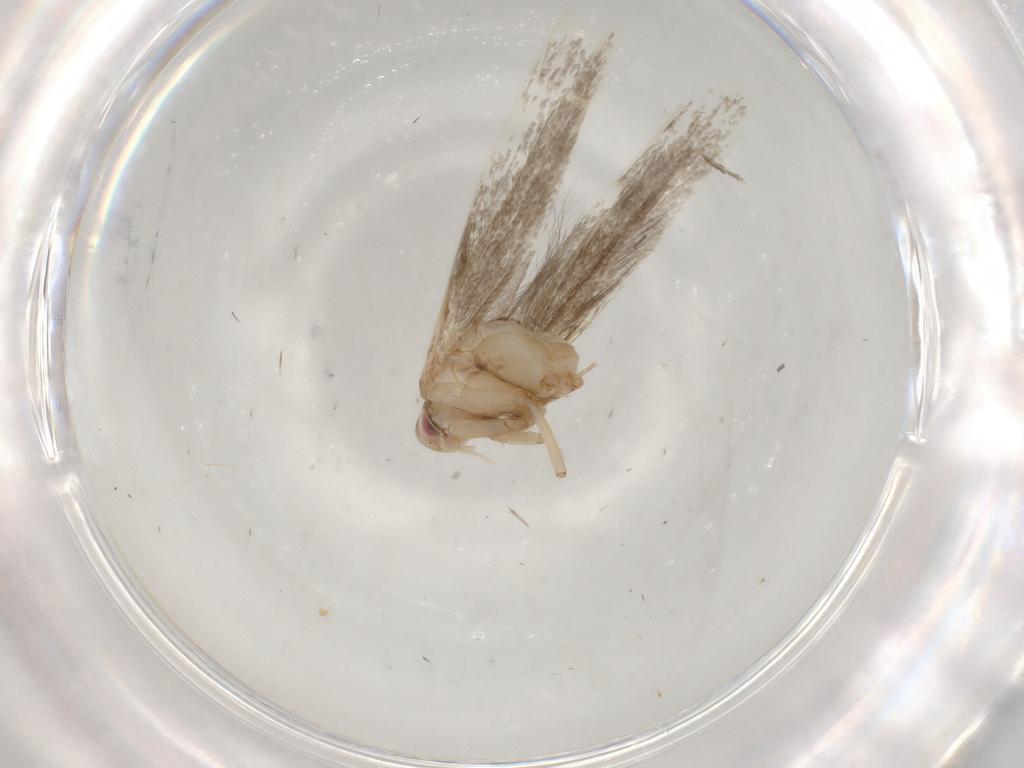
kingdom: Animalia
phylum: Arthropoda
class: Insecta
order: Lepidoptera
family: Cosmopterigidae
